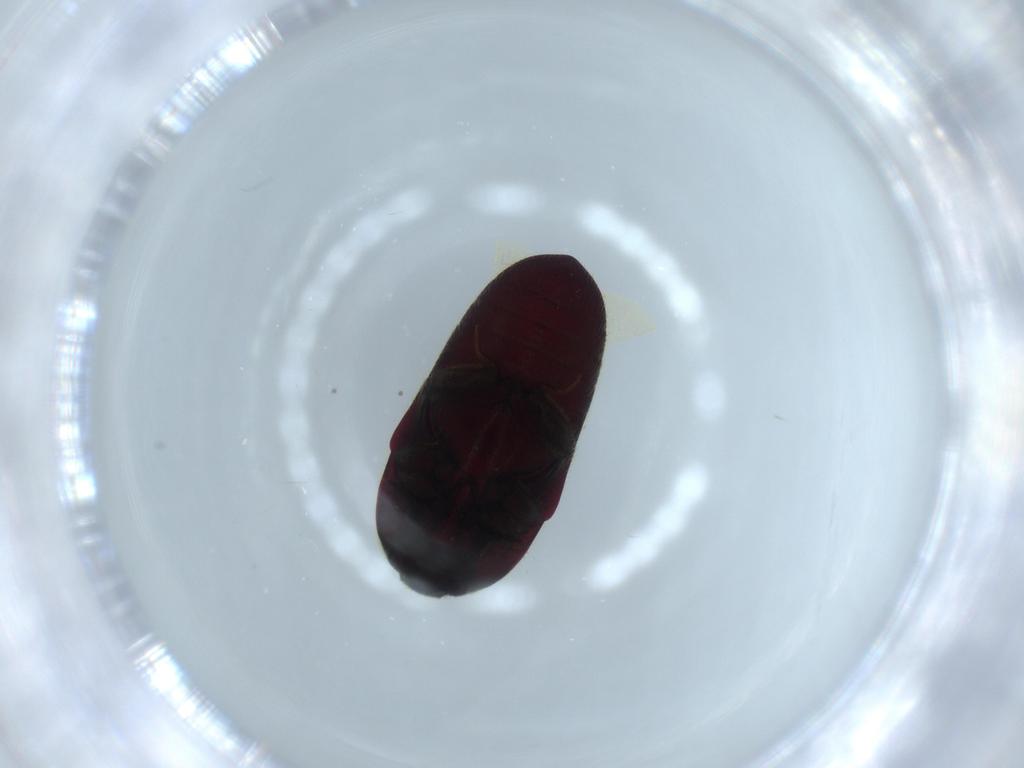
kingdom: Animalia
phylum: Arthropoda
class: Insecta
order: Coleoptera
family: Throscidae
